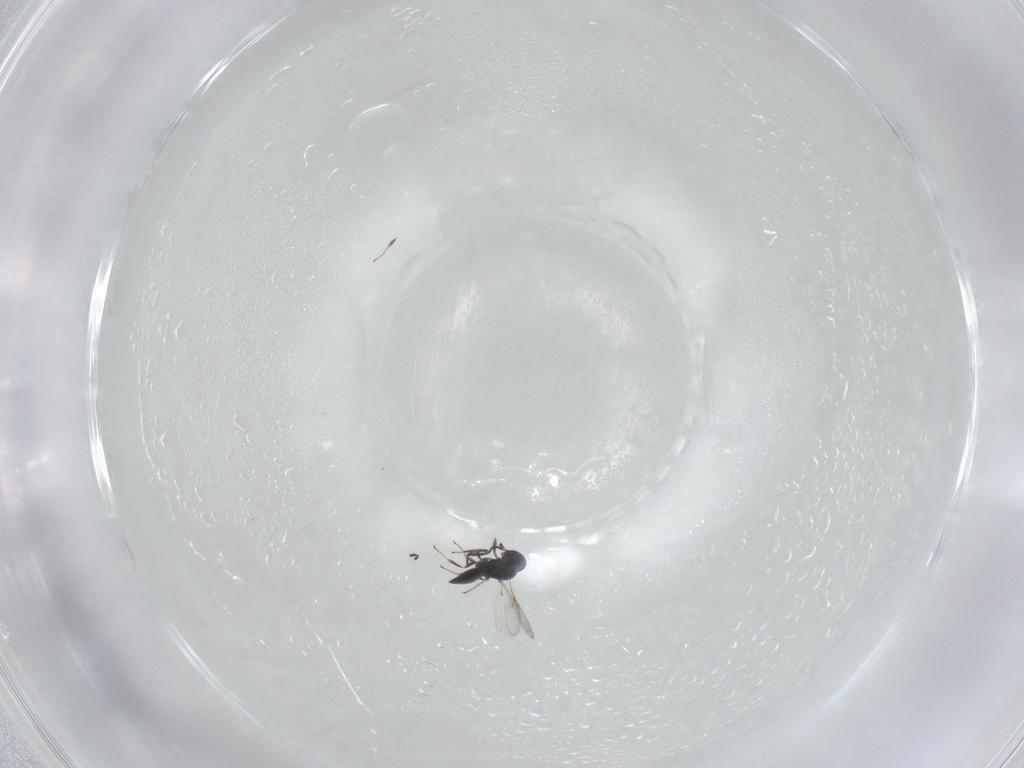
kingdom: Animalia
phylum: Arthropoda
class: Insecta
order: Hymenoptera
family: Scelionidae
